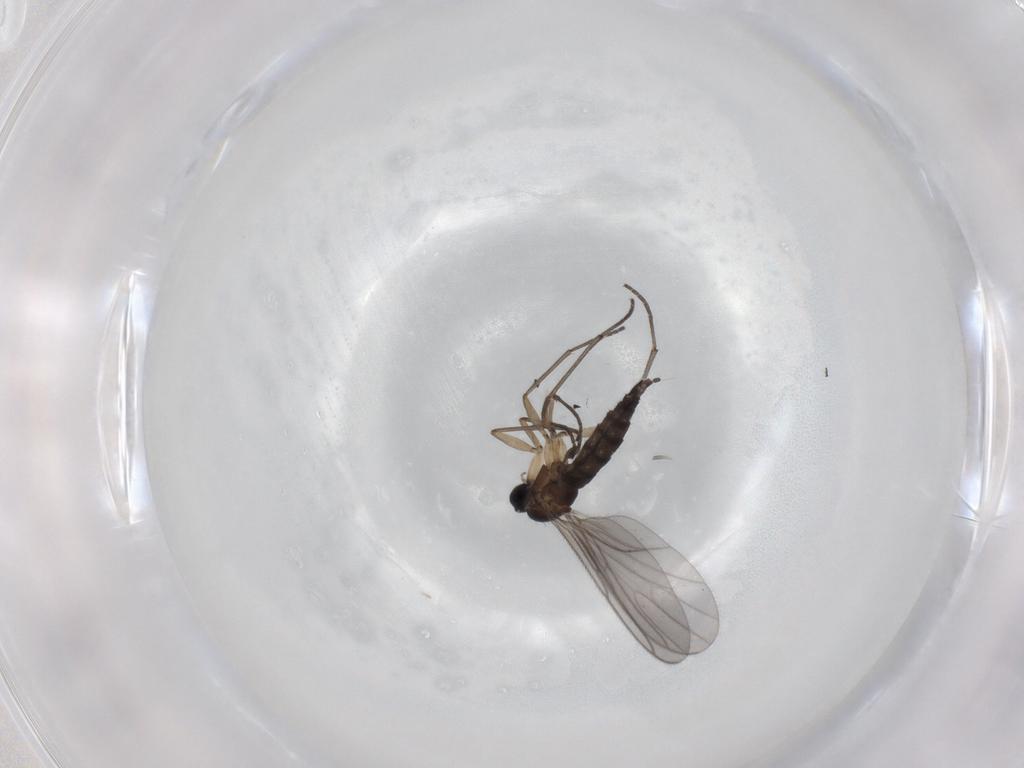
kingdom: Animalia
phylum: Arthropoda
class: Insecta
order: Diptera
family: Sciaridae
